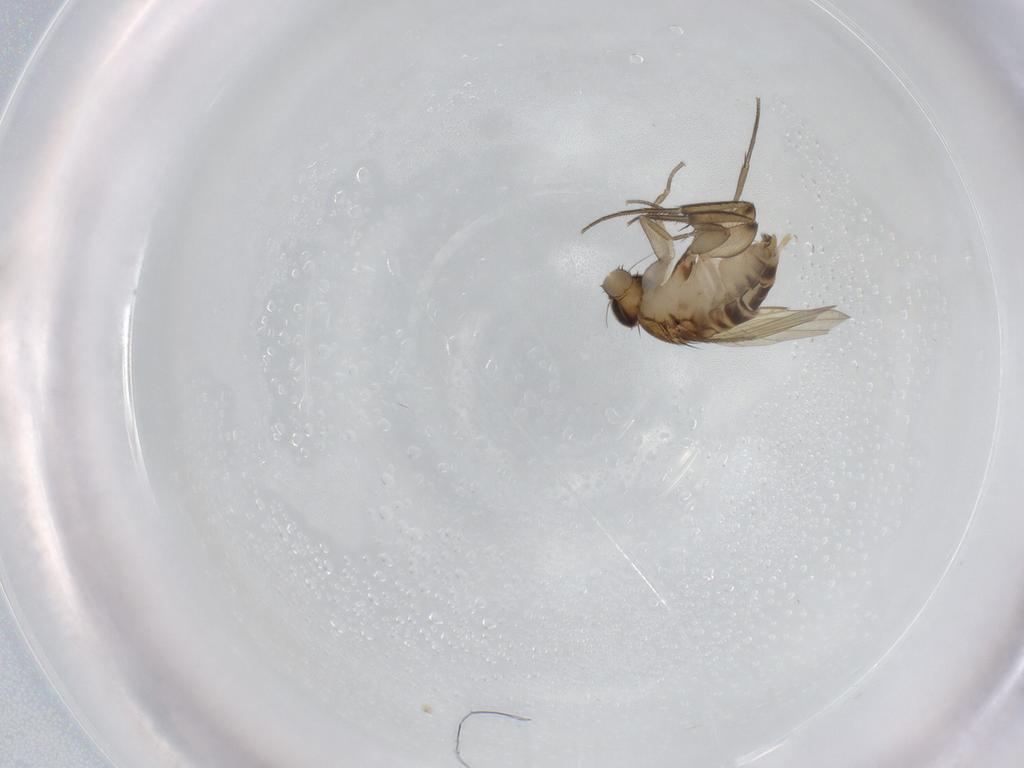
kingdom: Animalia
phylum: Arthropoda
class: Insecta
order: Diptera
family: Phoridae
